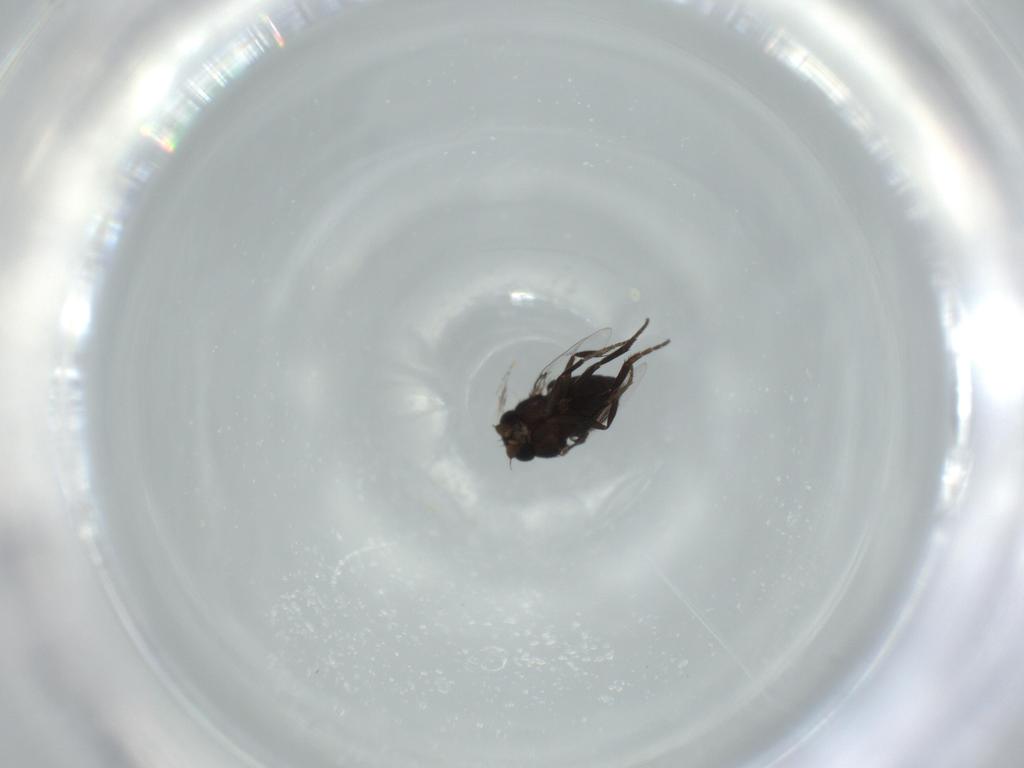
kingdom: Animalia
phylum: Arthropoda
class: Insecta
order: Diptera
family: Phoridae
